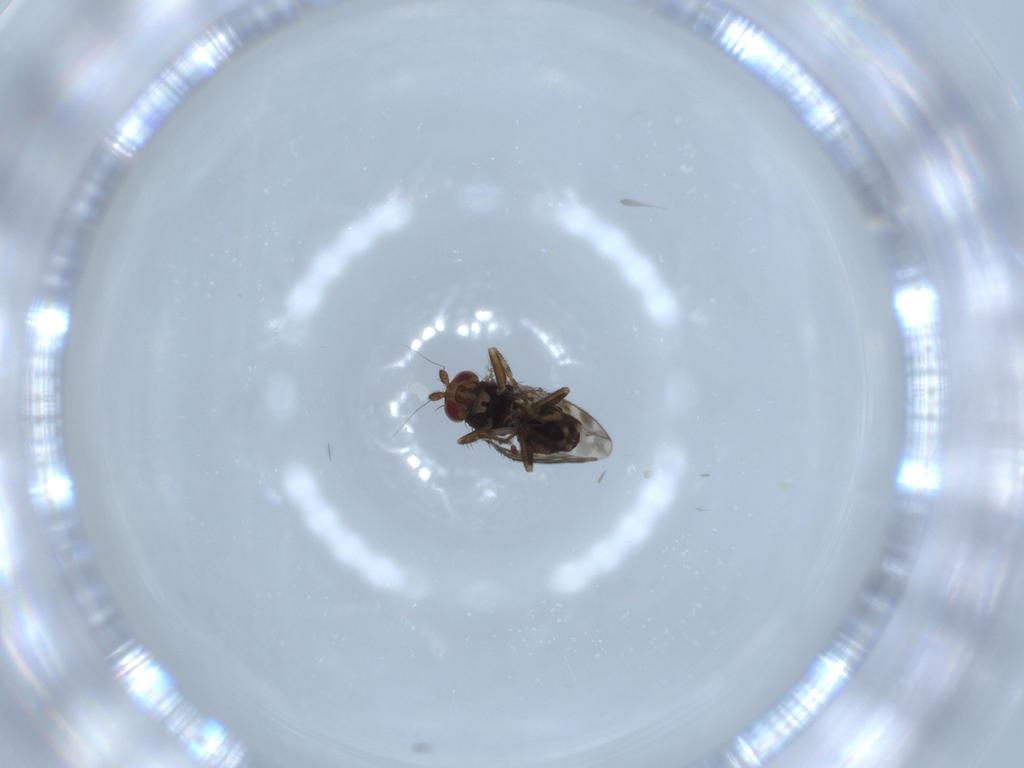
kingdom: Animalia
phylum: Arthropoda
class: Insecta
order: Diptera
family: Sphaeroceridae
